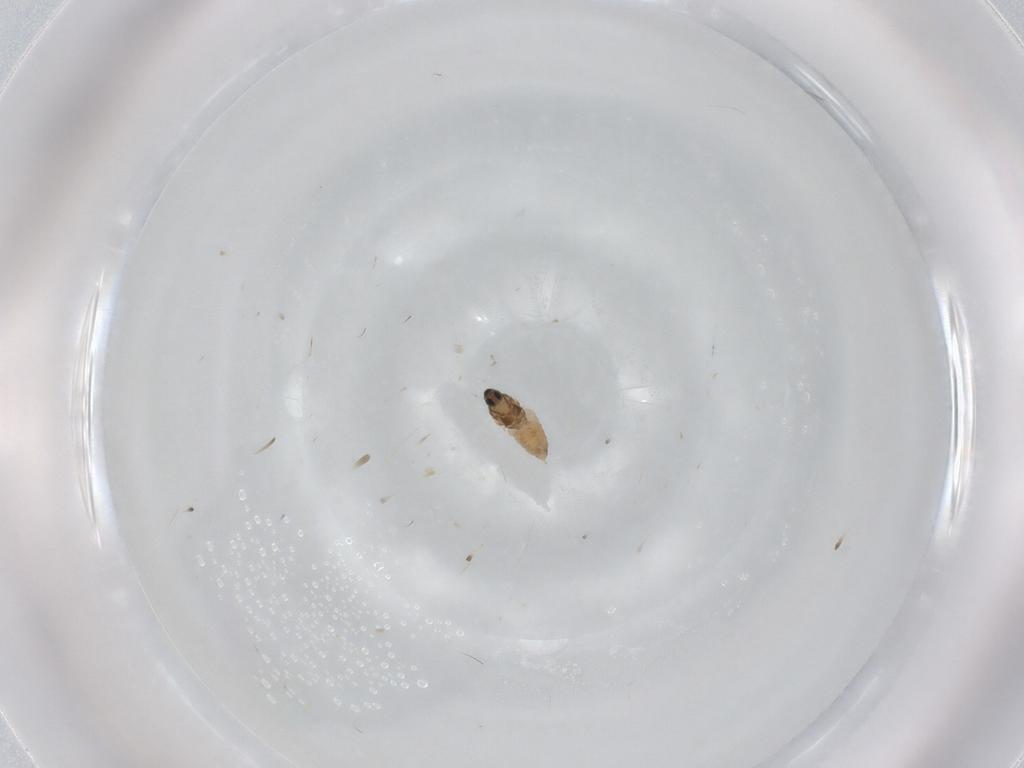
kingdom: Animalia
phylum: Arthropoda
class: Insecta
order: Diptera
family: Cecidomyiidae
